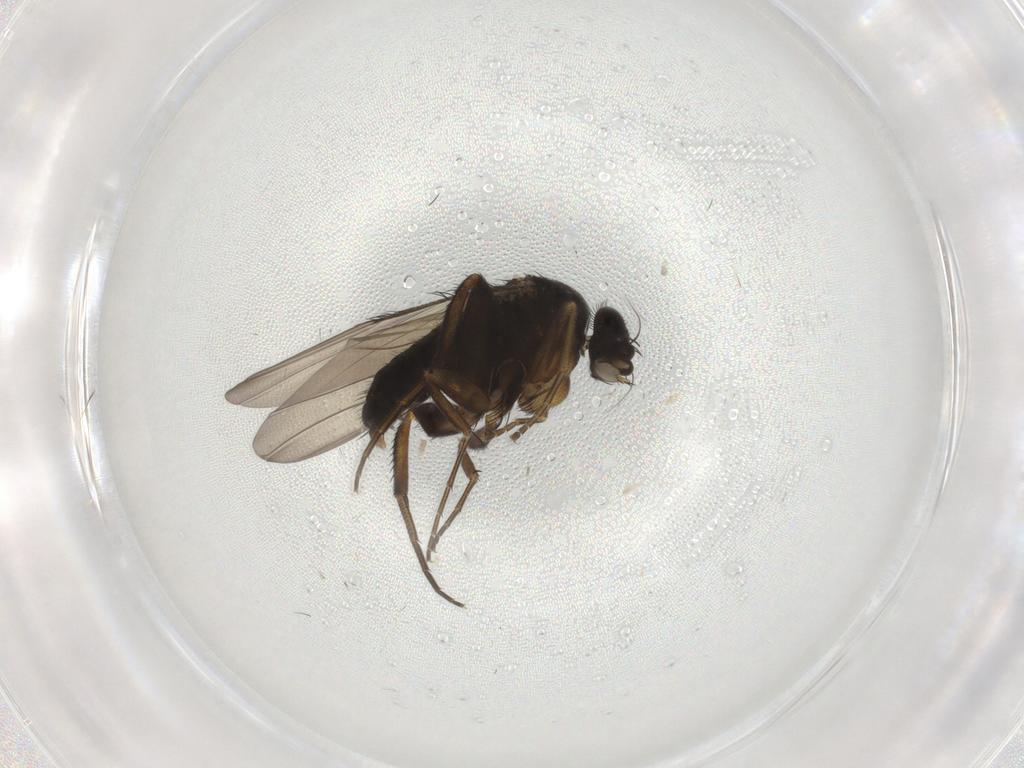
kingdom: Animalia
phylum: Arthropoda
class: Insecta
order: Diptera
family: Phoridae
